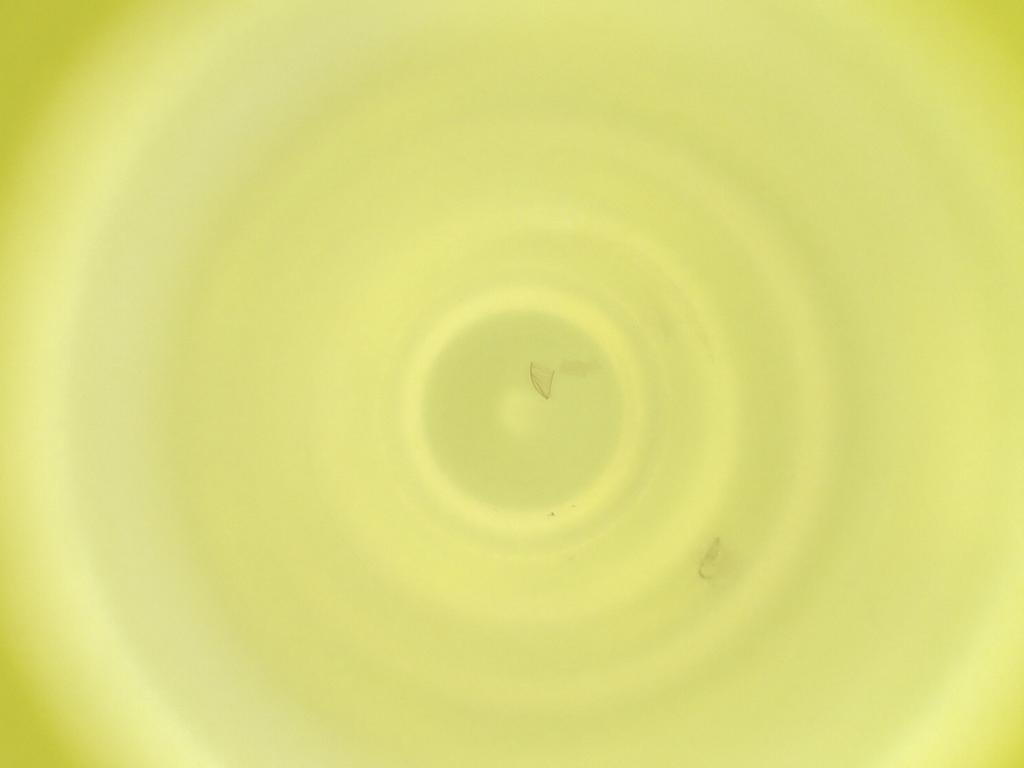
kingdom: Animalia
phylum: Arthropoda
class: Insecta
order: Diptera
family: Cecidomyiidae
